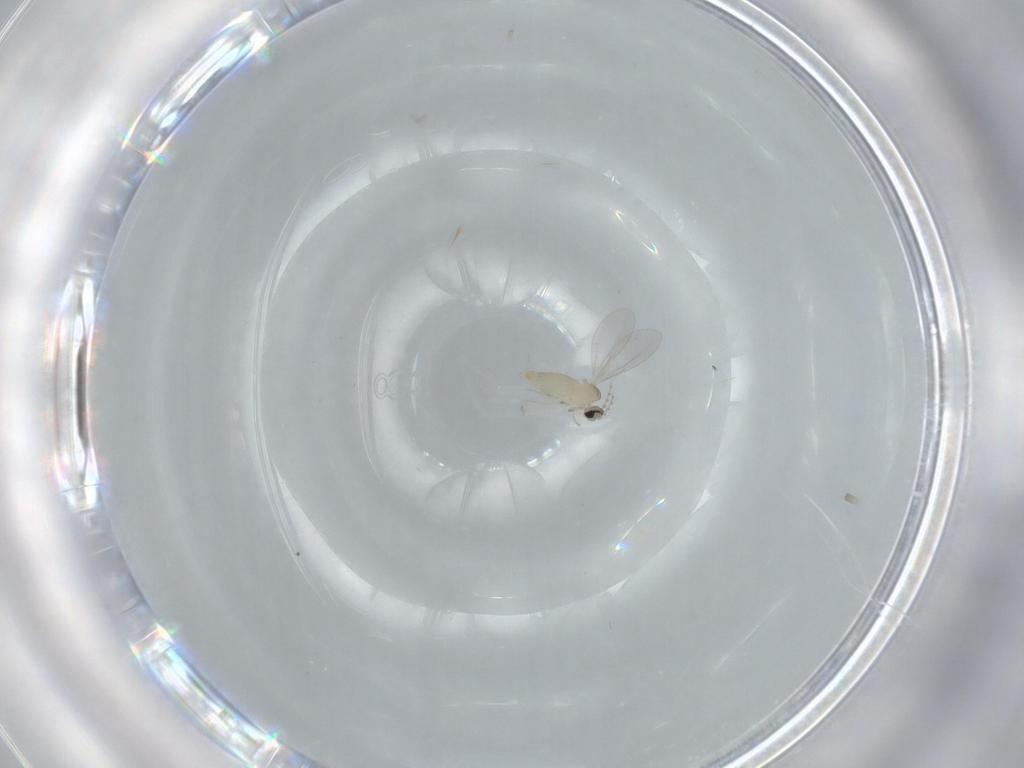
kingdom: Animalia
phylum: Arthropoda
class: Insecta
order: Diptera
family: Cecidomyiidae
